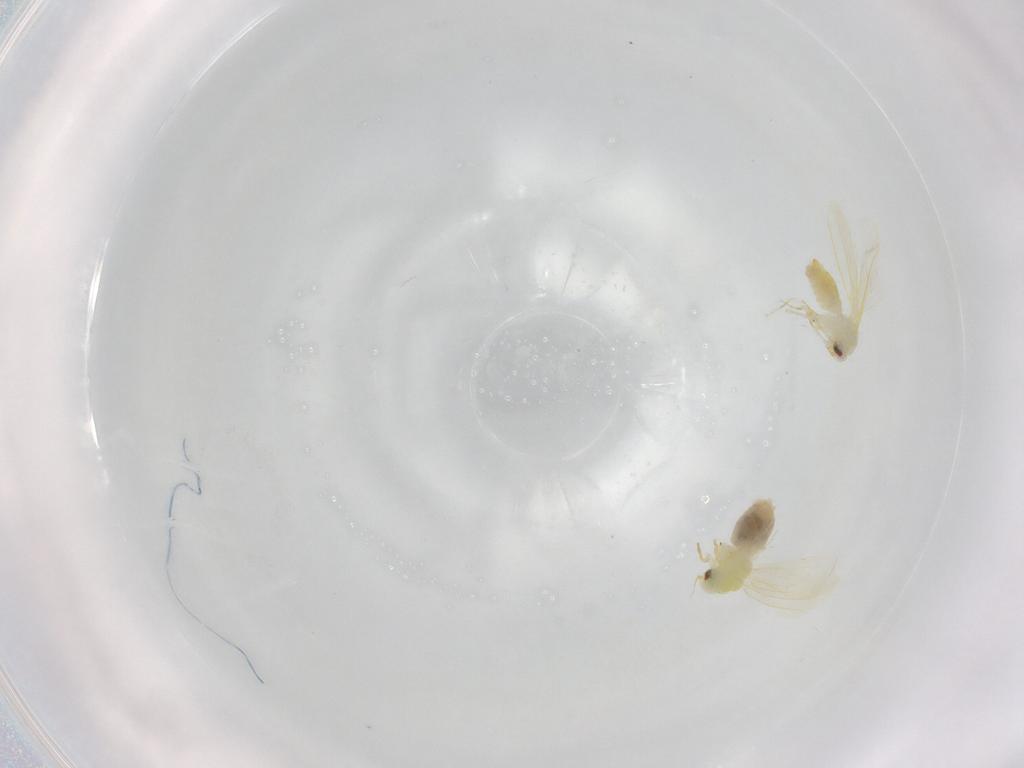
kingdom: Animalia
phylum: Arthropoda
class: Insecta
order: Hemiptera
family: Aleyrodidae
